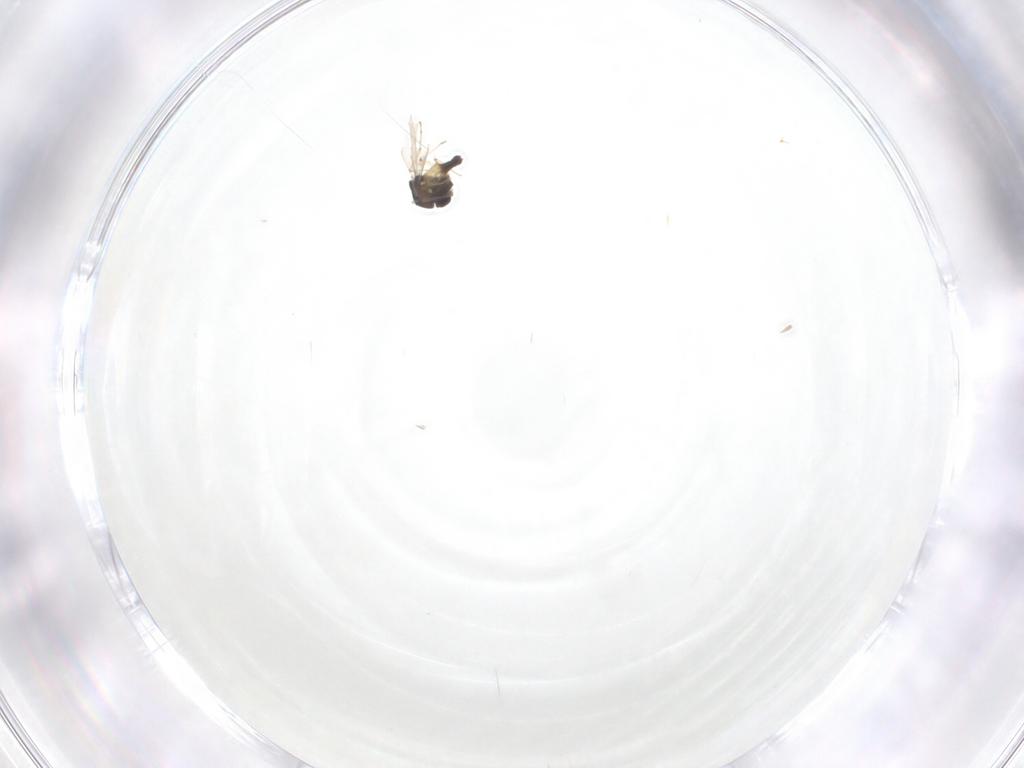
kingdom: Animalia
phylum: Arthropoda
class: Insecta
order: Diptera
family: Chironomidae
